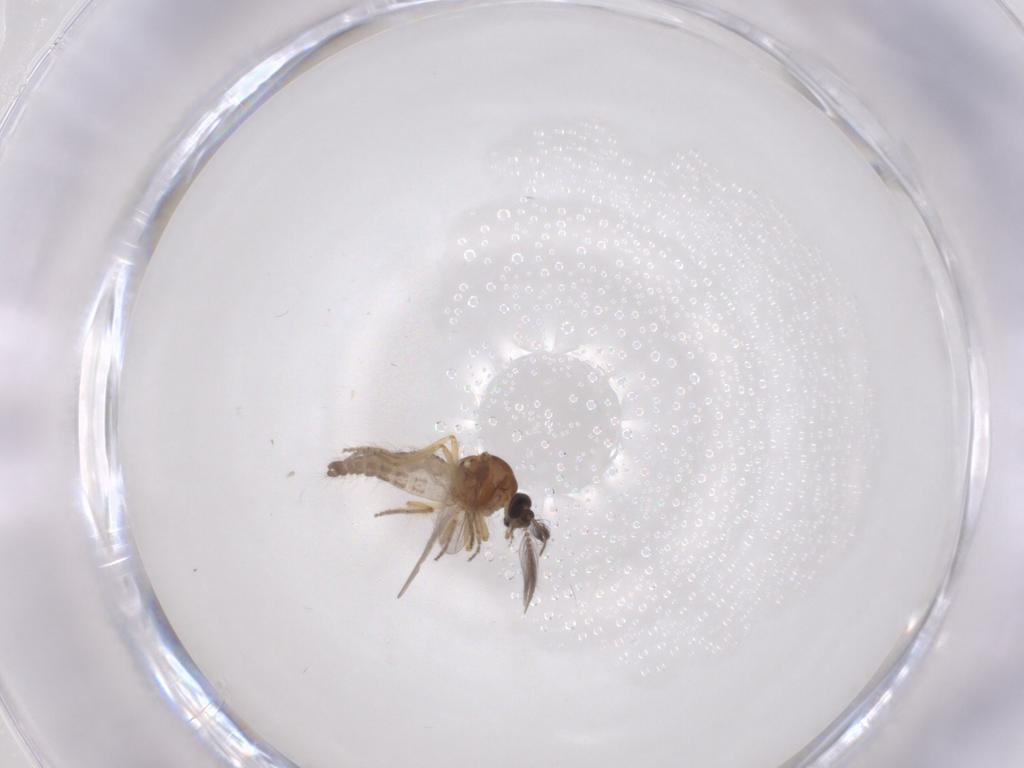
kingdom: Animalia
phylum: Arthropoda
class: Insecta
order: Diptera
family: Ceratopogonidae
